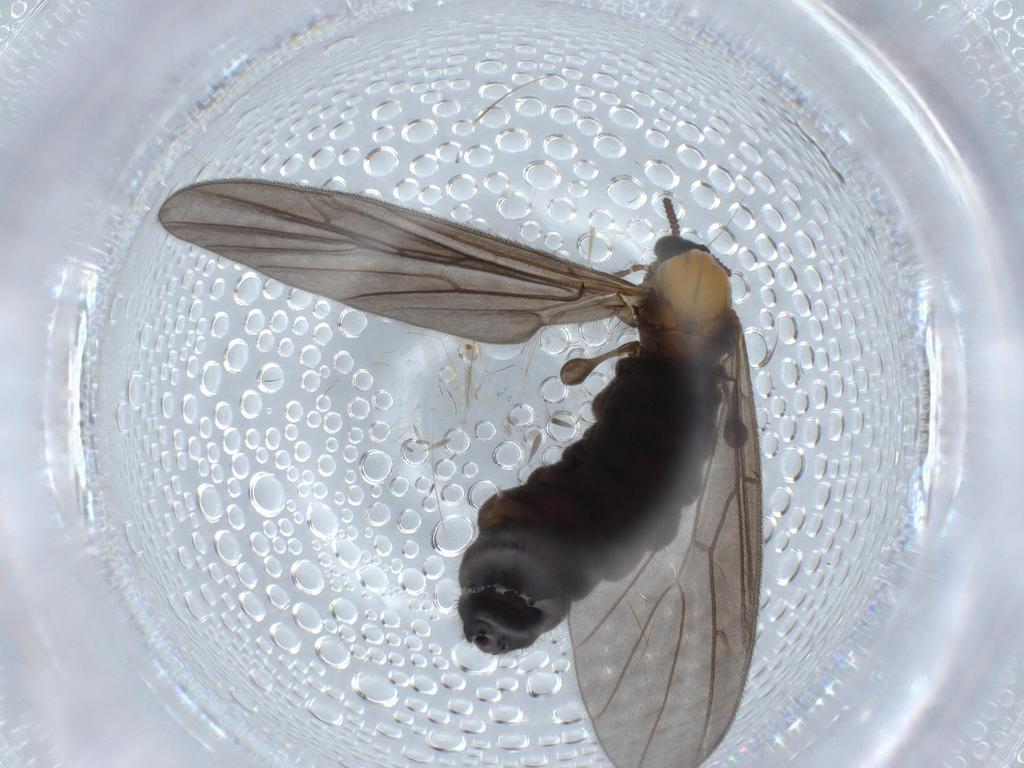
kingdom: Animalia
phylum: Arthropoda
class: Insecta
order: Diptera
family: Bibionidae
